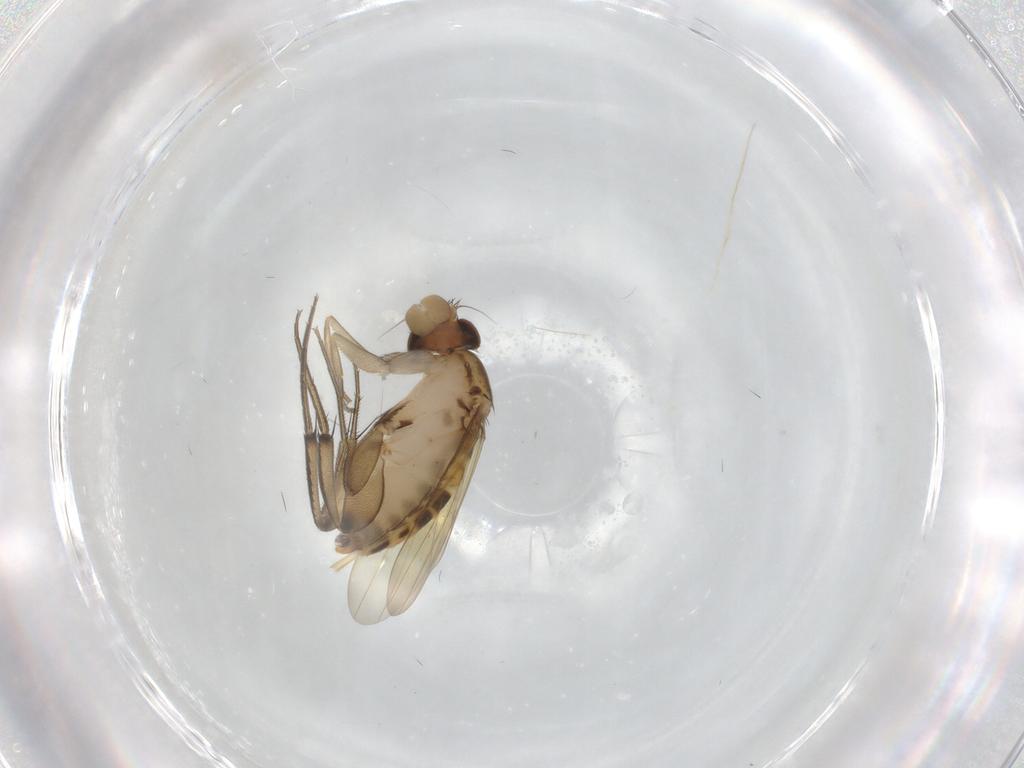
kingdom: Animalia
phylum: Arthropoda
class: Insecta
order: Diptera
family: Phoridae
